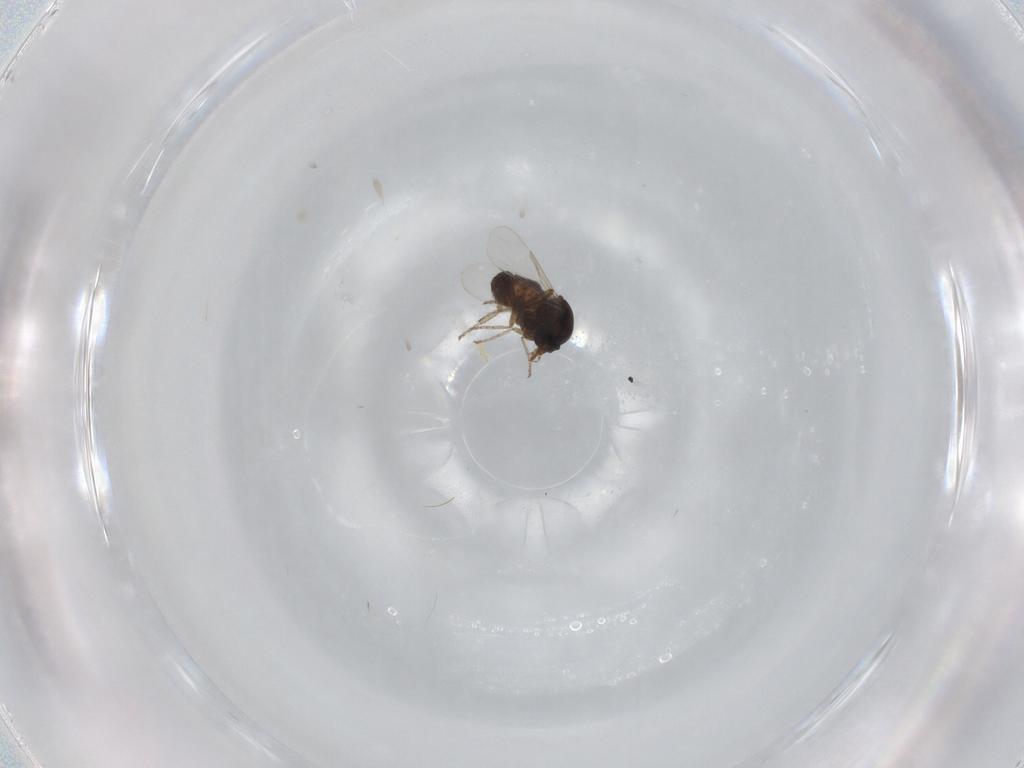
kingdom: Animalia
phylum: Arthropoda
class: Insecta
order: Diptera
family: Ceratopogonidae
